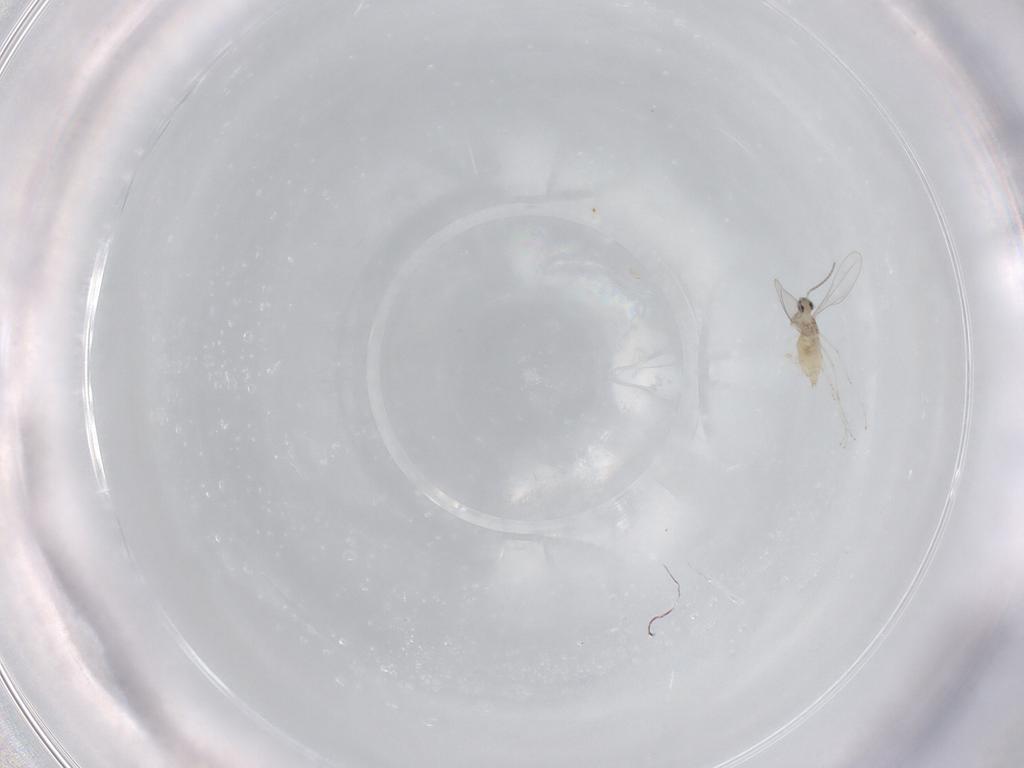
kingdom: Animalia
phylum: Arthropoda
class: Insecta
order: Diptera
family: Cecidomyiidae
